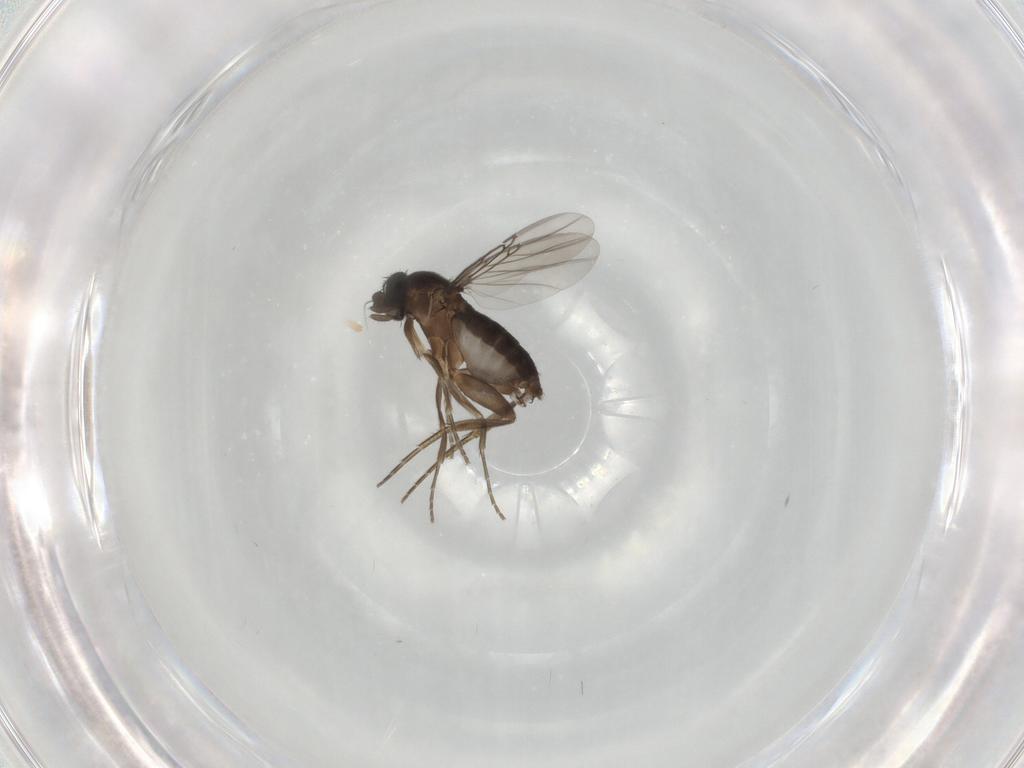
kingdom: Animalia
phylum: Arthropoda
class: Insecta
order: Diptera
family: Phoridae
